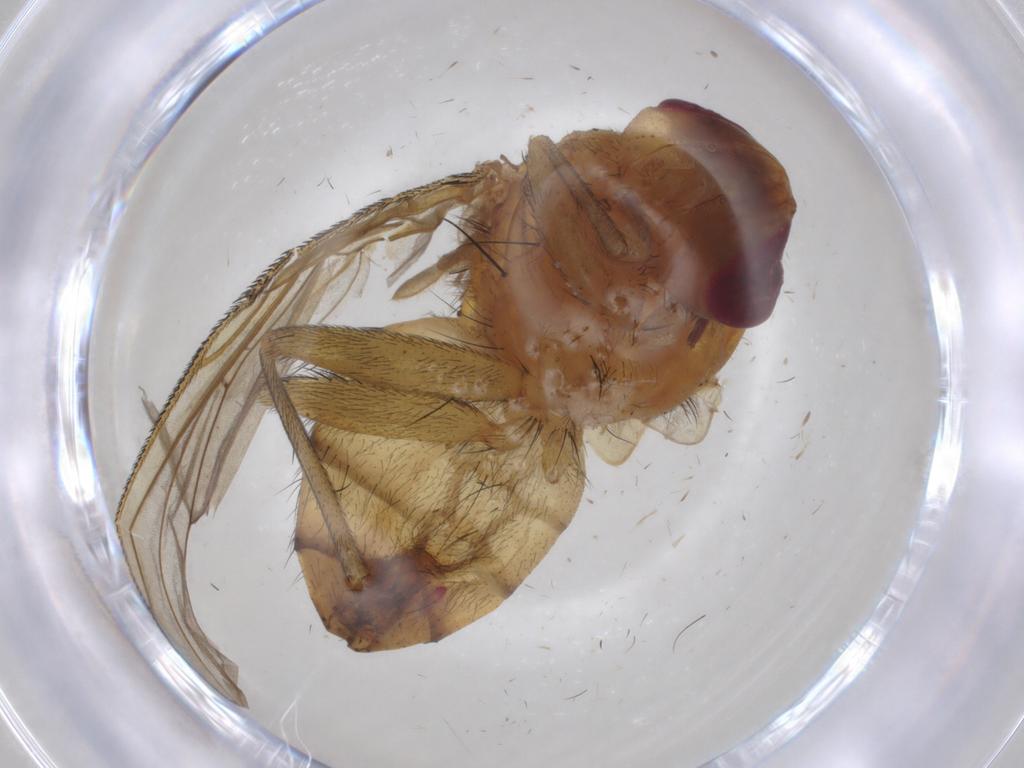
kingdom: Animalia
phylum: Arthropoda
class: Insecta
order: Diptera
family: Calliphoridae
